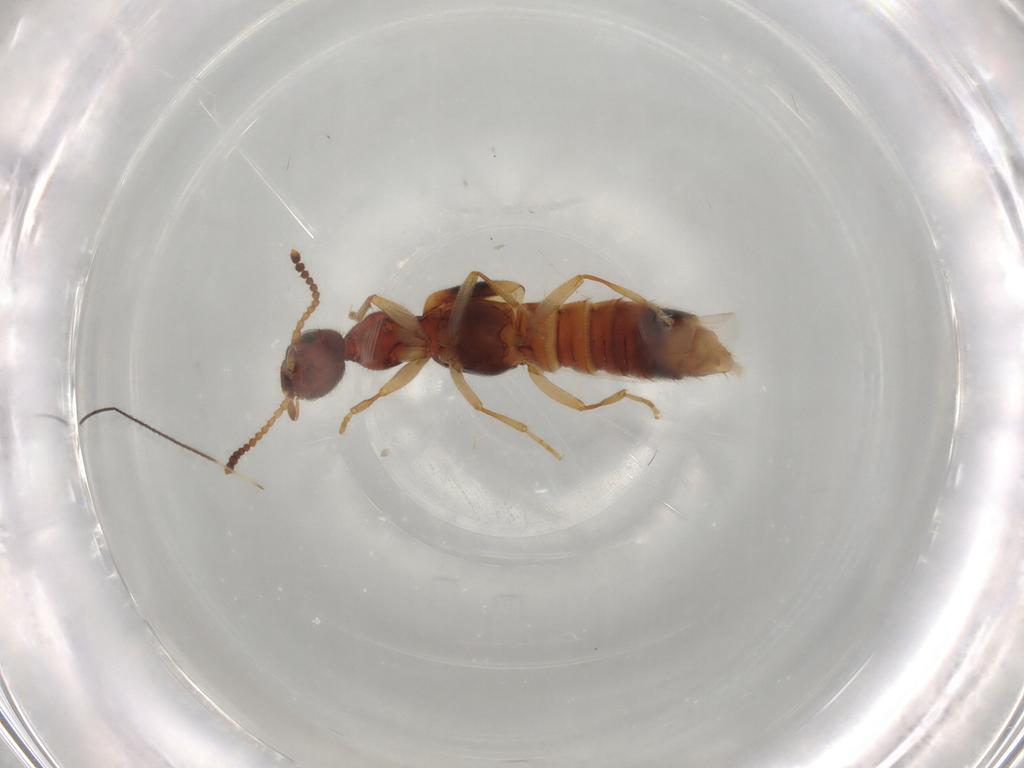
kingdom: Animalia
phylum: Arthropoda
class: Insecta
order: Coleoptera
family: Staphylinidae
